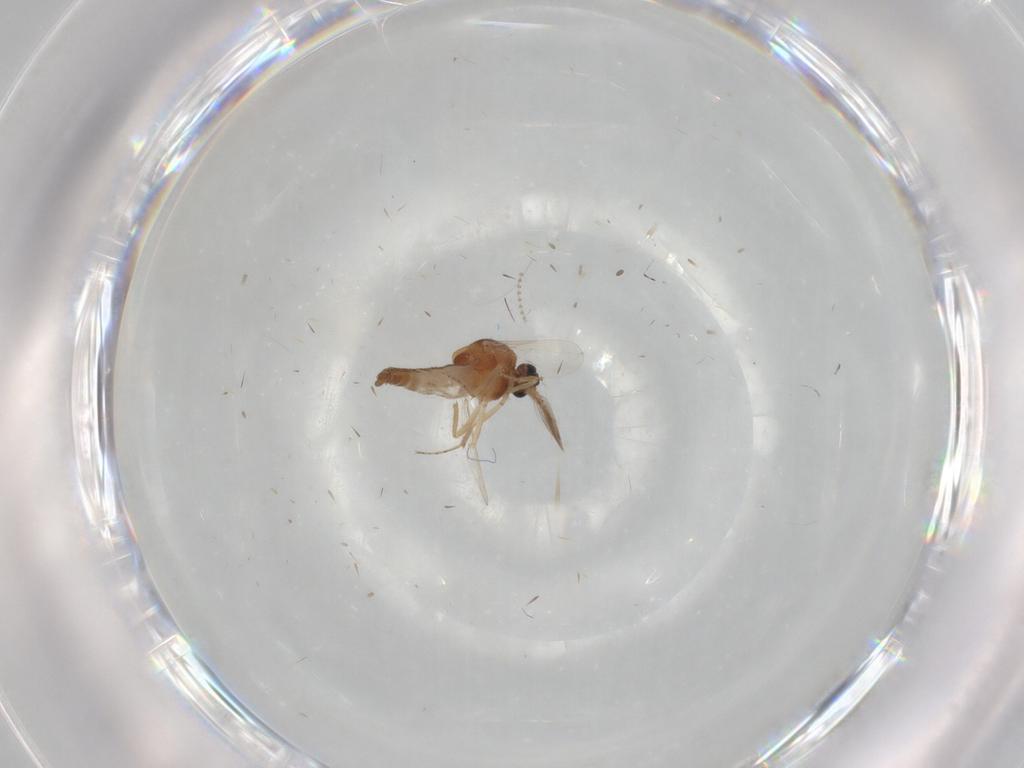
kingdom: Animalia
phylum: Arthropoda
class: Insecta
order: Diptera
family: Ceratopogonidae
